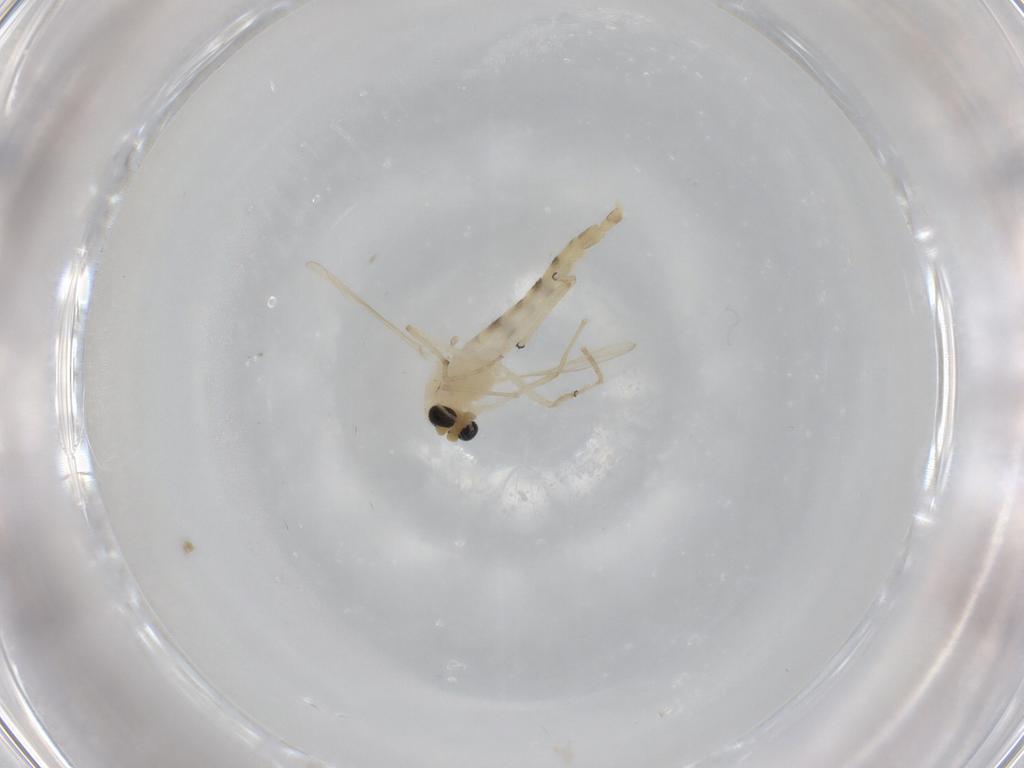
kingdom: Animalia
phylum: Arthropoda
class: Insecta
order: Diptera
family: Chironomidae
